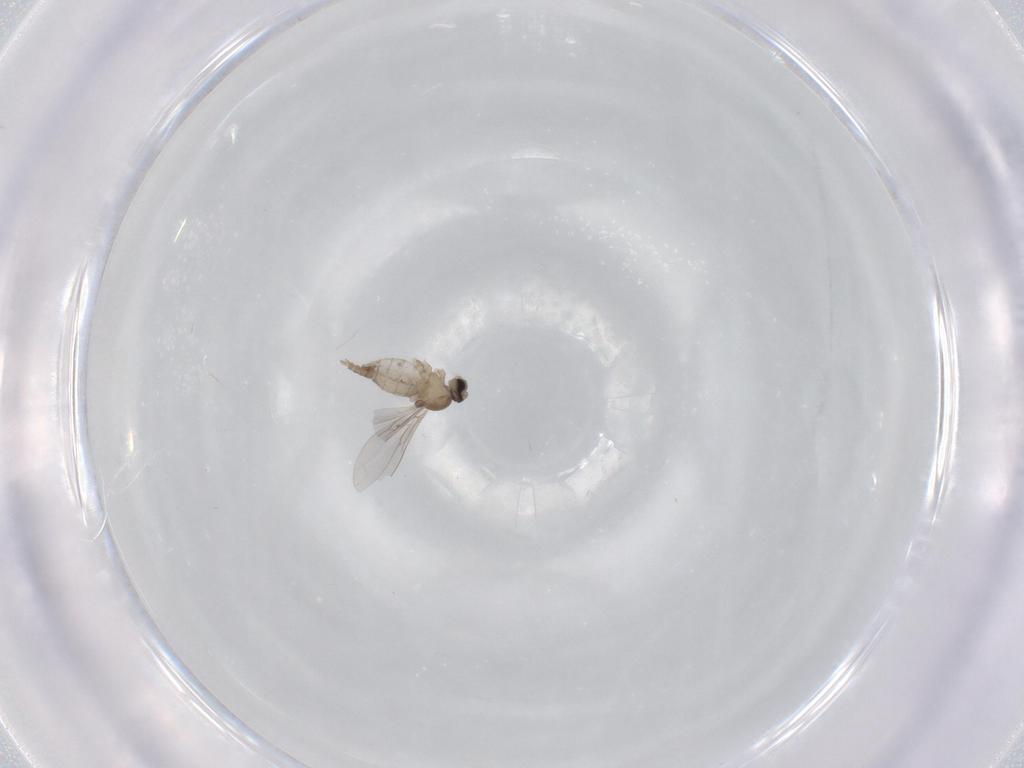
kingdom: Animalia
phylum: Arthropoda
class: Insecta
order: Diptera
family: Cecidomyiidae
